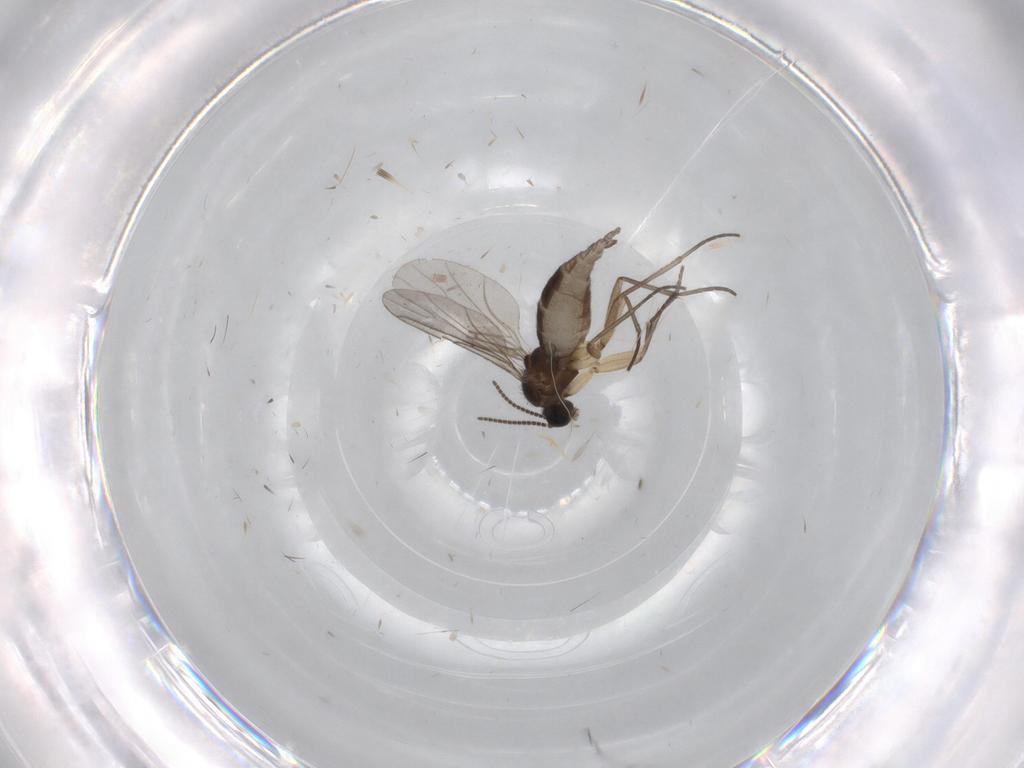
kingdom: Animalia
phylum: Arthropoda
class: Insecta
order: Diptera
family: Sciaridae
